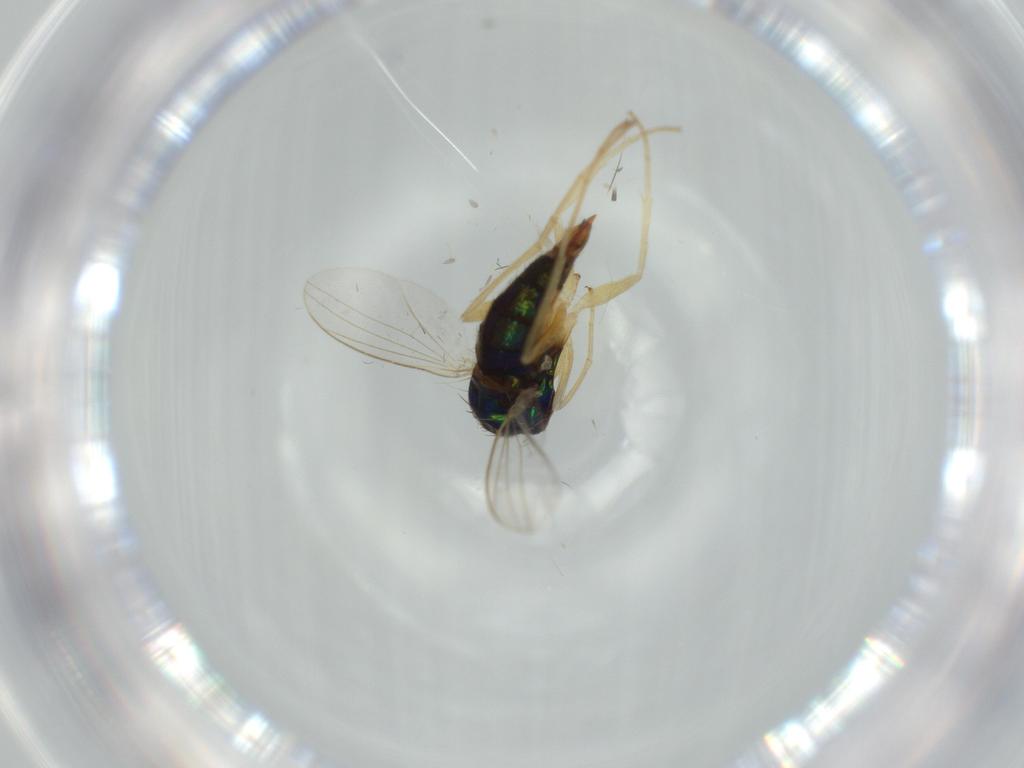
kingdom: Animalia
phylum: Arthropoda
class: Insecta
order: Diptera
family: Dolichopodidae
